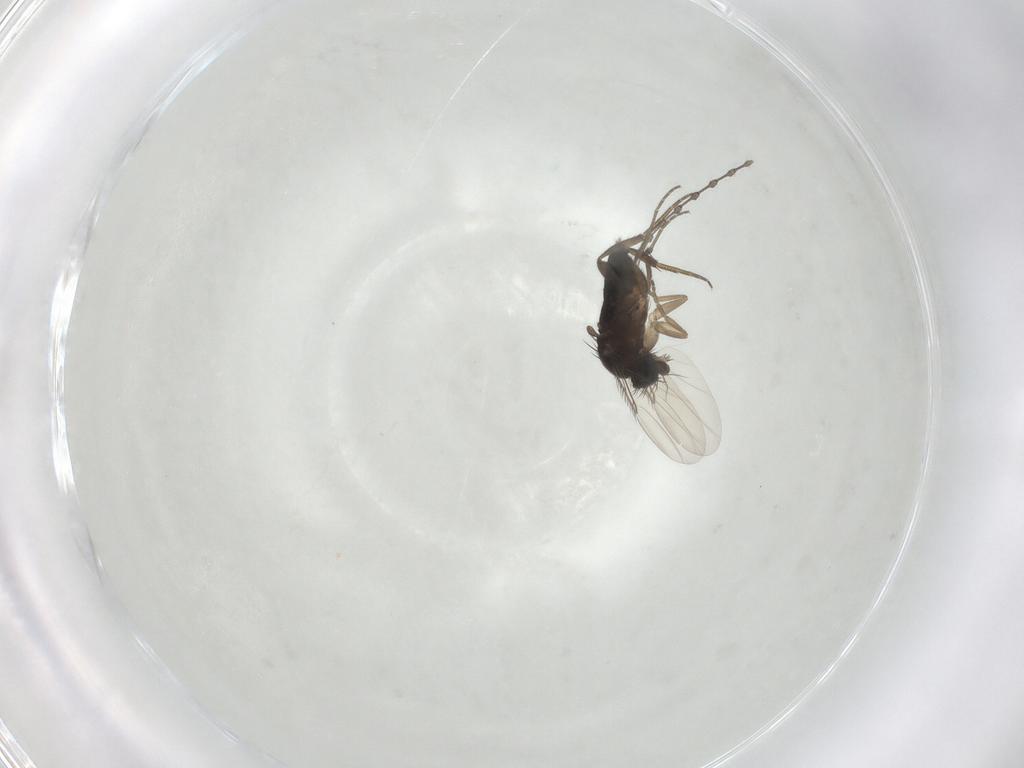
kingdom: Animalia
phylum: Arthropoda
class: Insecta
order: Diptera
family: Phoridae
